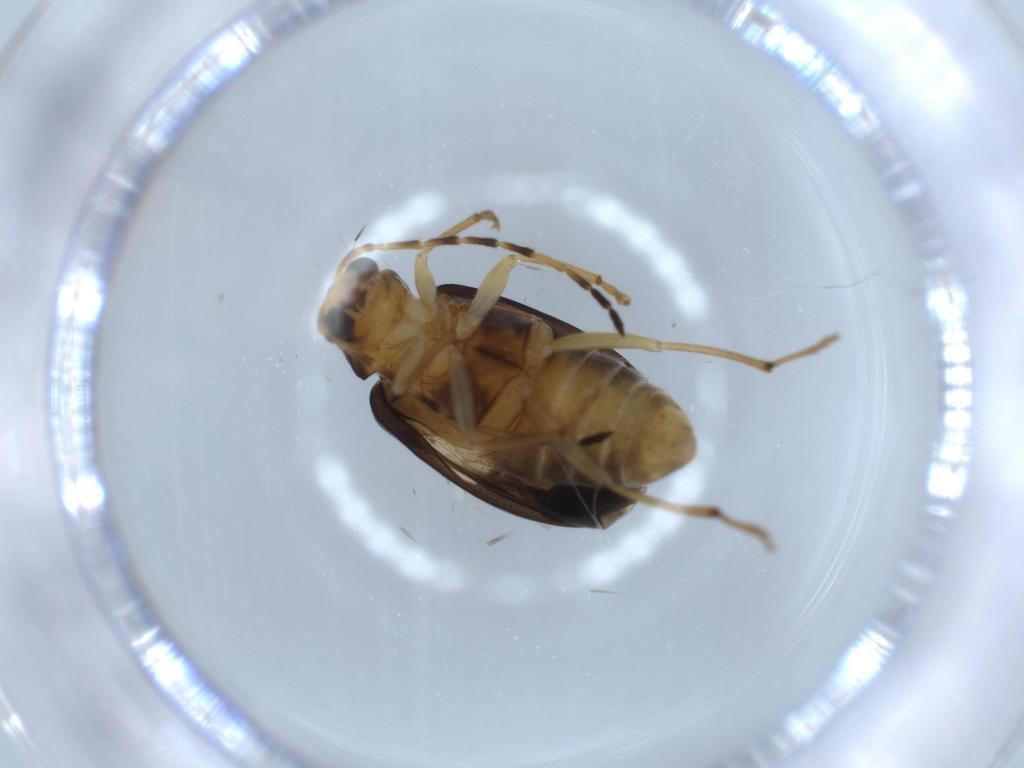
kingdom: Animalia
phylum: Arthropoda
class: Insecta
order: Coleoptera
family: Chrysomelidae
